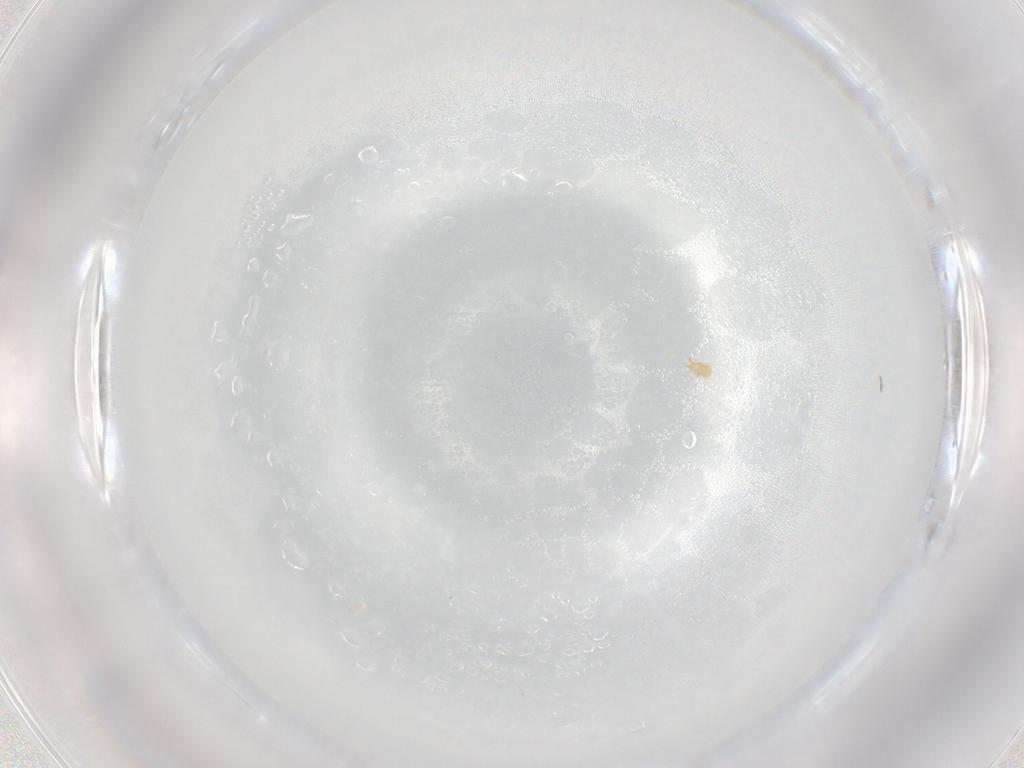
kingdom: Animalia
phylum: Arthropoda
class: Arachnida
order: Trombidiformes
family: Pygmephoridae
